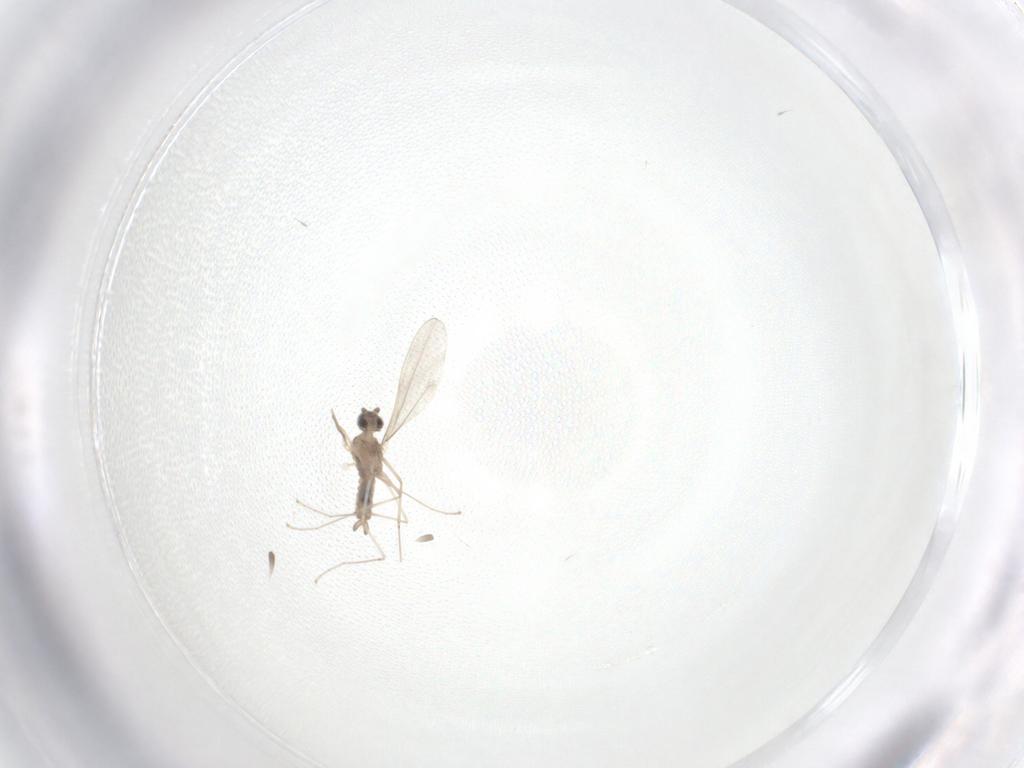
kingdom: Animalia
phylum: Arthropoda
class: Insecta
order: Diptera
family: Cecidomyiidae
